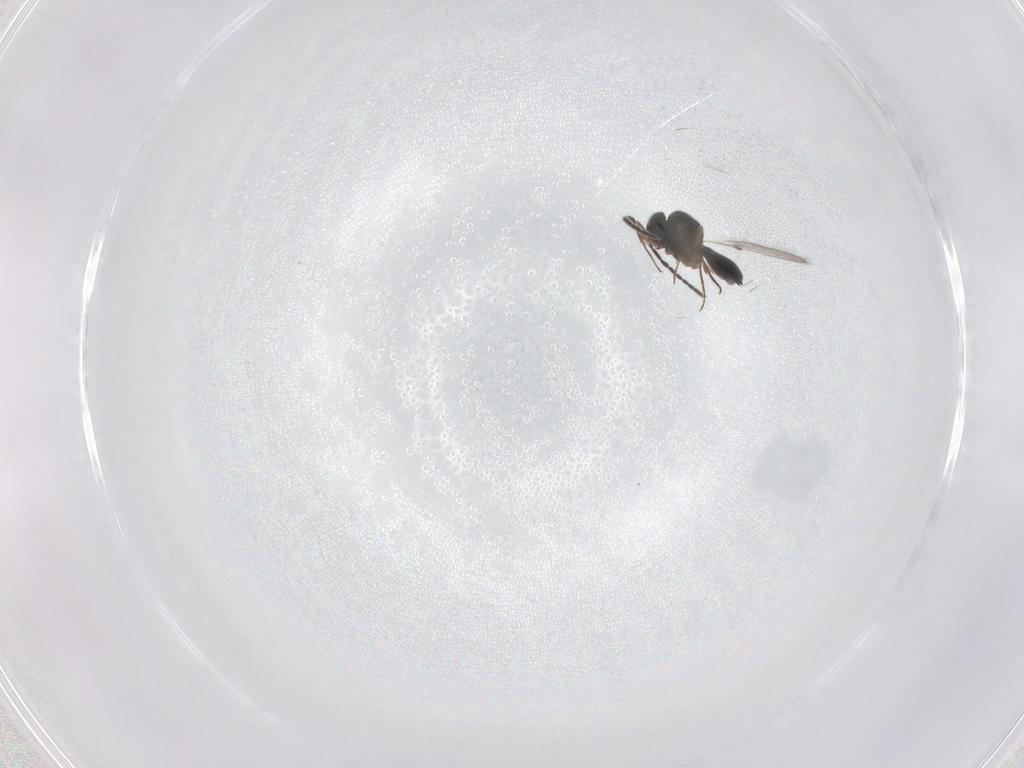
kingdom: Animalia
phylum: Arthropoda
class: Insecta
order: Hymenoptera
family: Scelionidae
